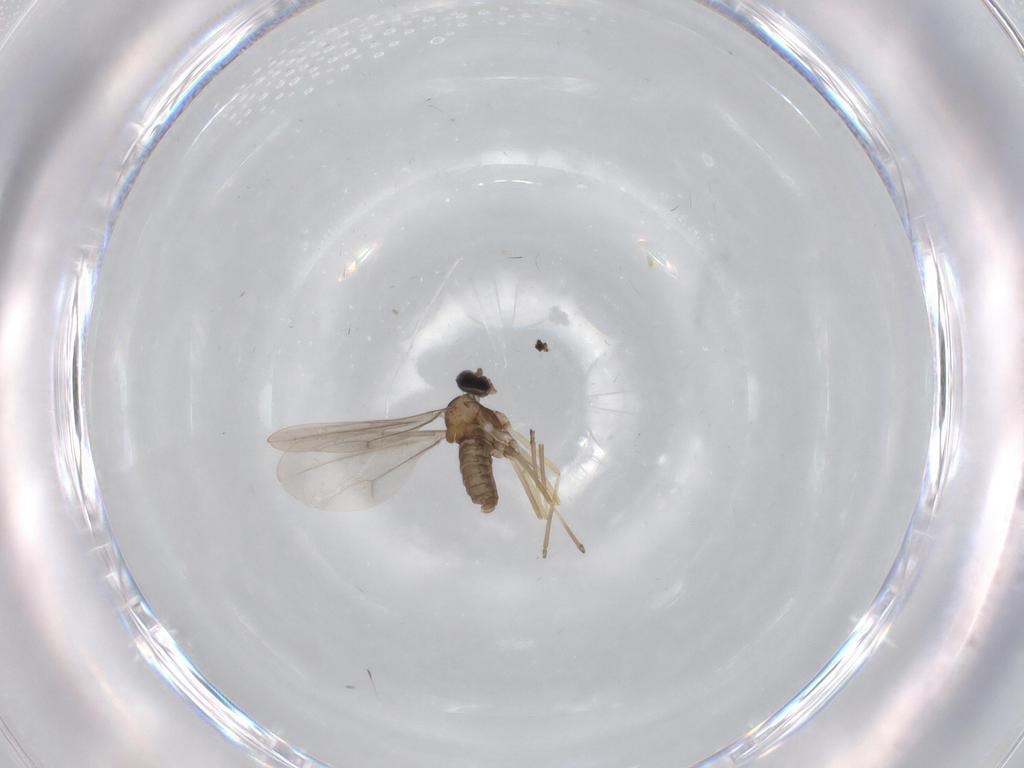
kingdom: Animalia
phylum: Arthropoda
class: Insecta
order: Diptera
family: Cecidomyiidae
